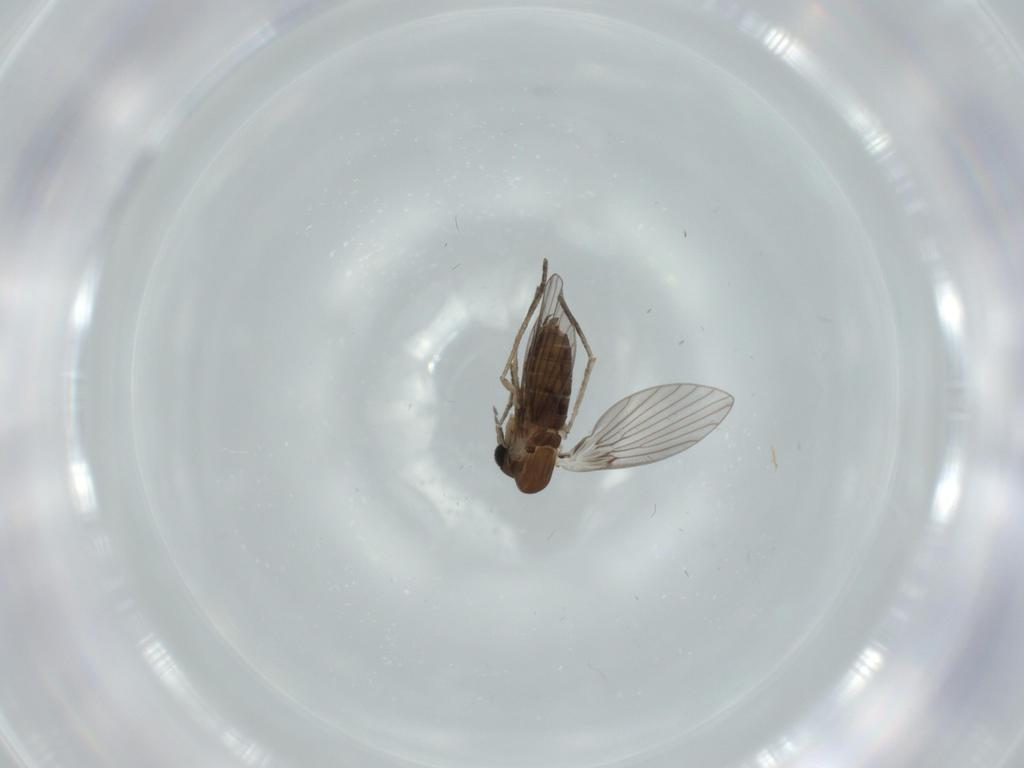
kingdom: Animalia
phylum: Arthropoda
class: Insecta
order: Diptera
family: Psychodidae
